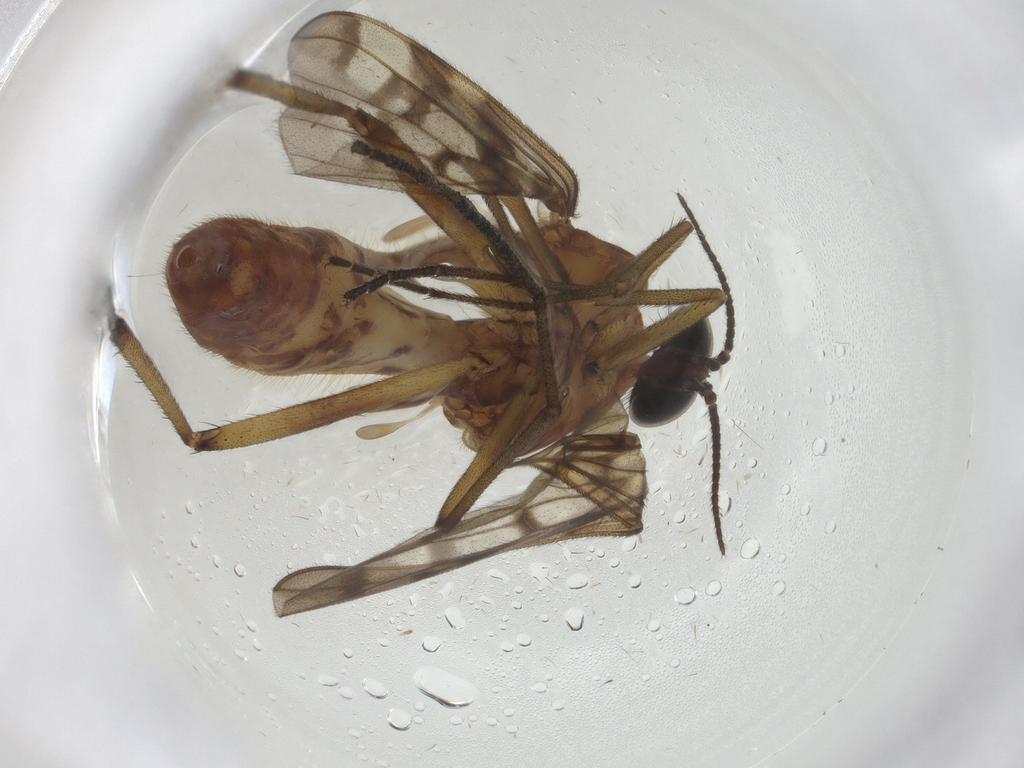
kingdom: Animalia
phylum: Arthropoda
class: Insecta
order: Diptera
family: Anisopodidae
